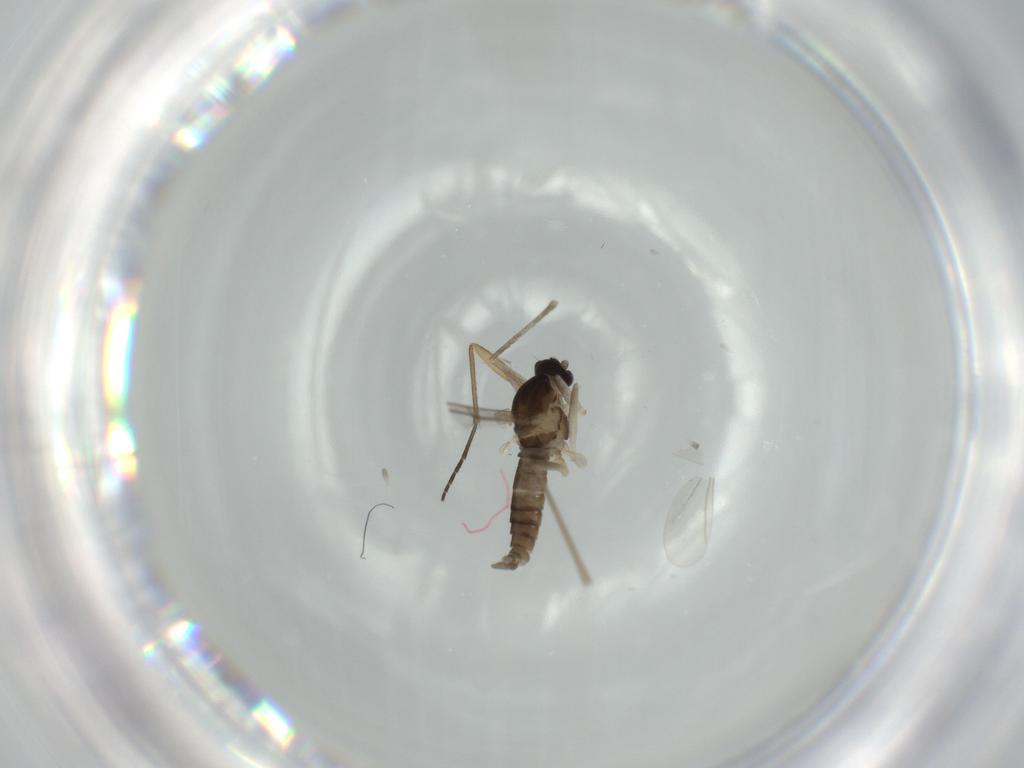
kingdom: Animalia
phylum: Arthropoda
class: Insecta
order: Diptera
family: Cecidomyiidae
